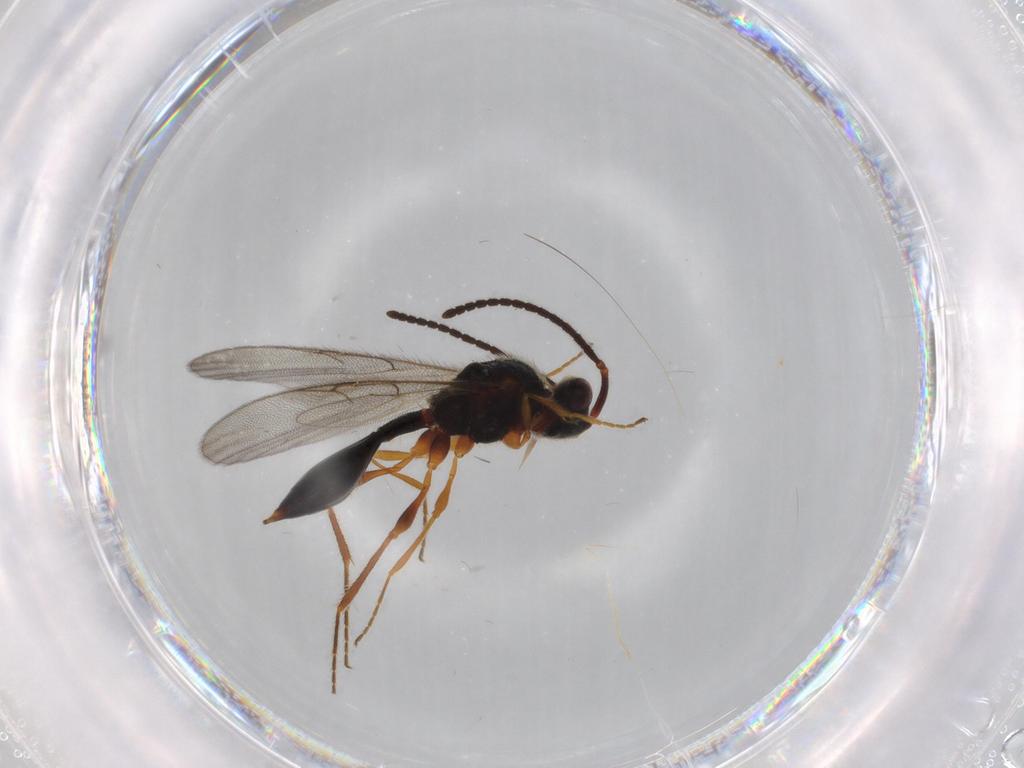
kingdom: Animalia
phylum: Arthropoda
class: Insecta
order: Hymenoptera
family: Diapriidae
